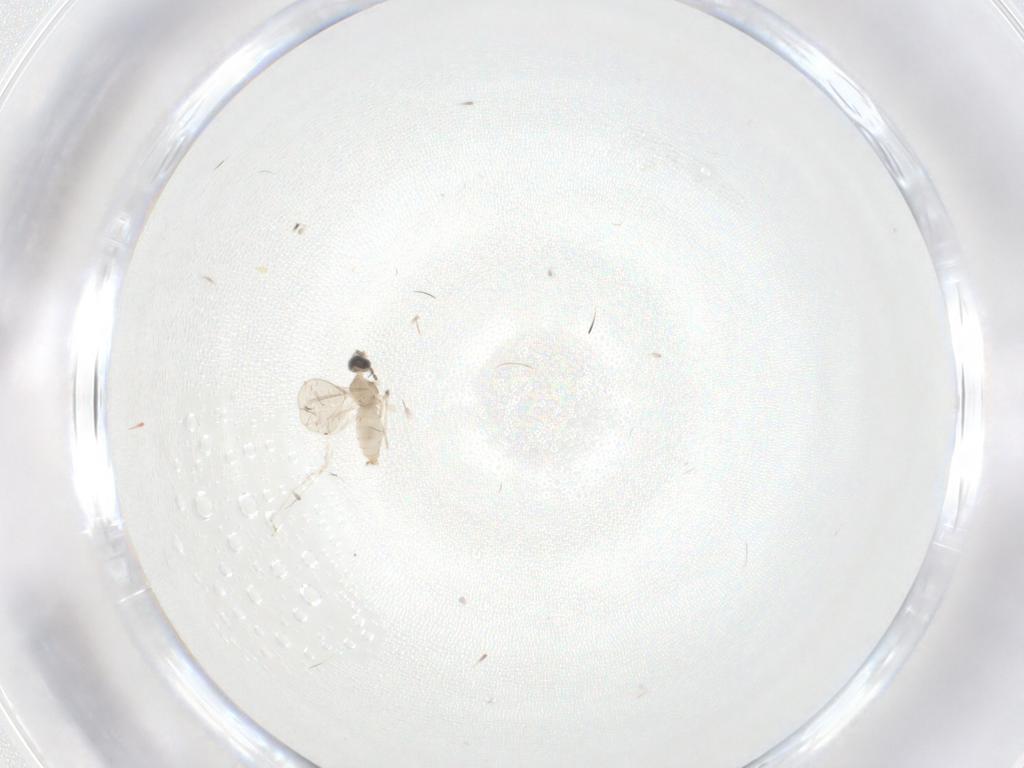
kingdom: Animalia
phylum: Arthropoda
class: Insecta
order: Diptera
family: Cecidomyiidae
